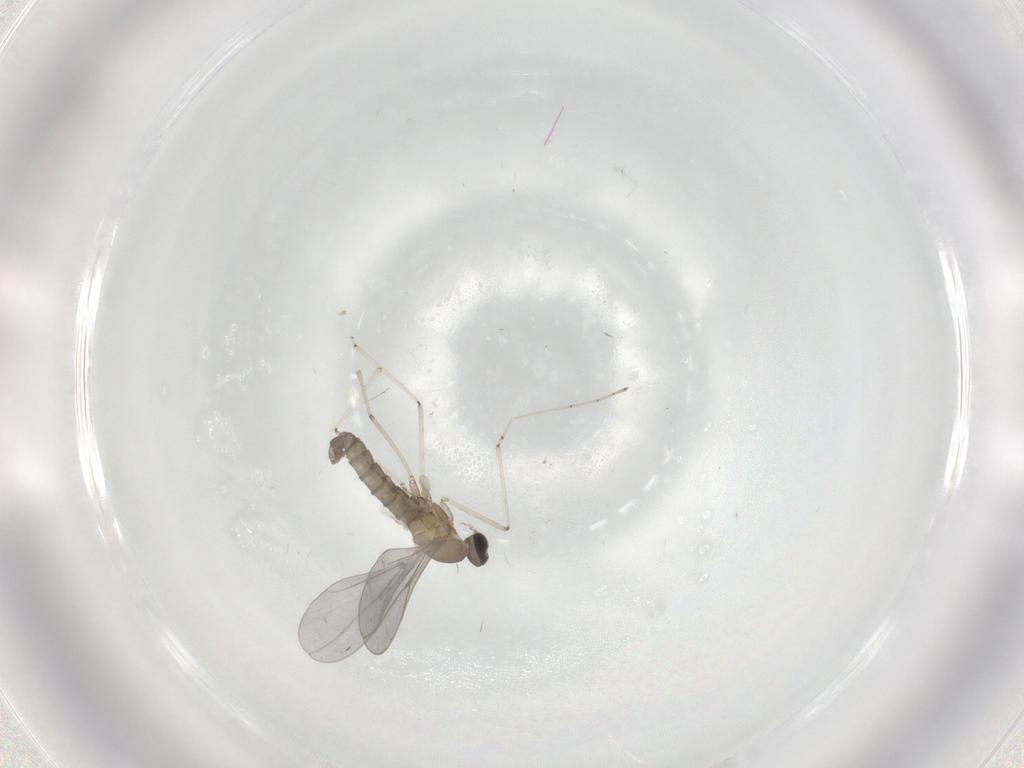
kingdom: Animalia
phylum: Arthropoda
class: Insecta
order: Diptera
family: Cecidomyiidae
